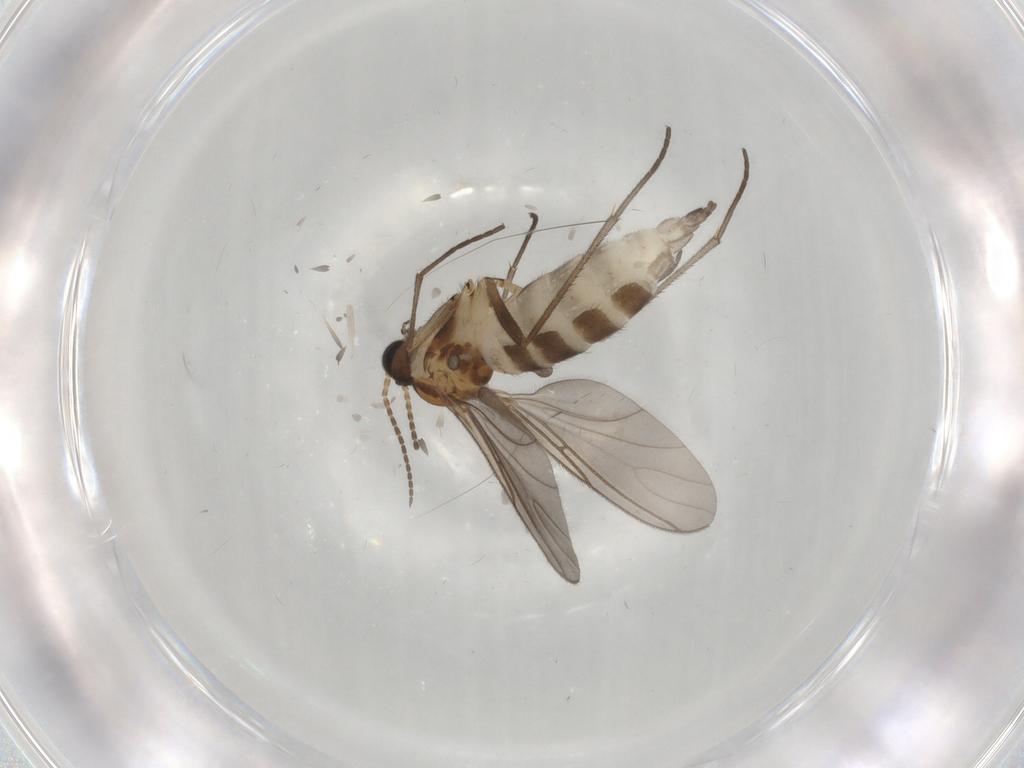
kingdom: Animalia
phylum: Arthropoda
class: Insecta
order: Diptera
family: Sciaridae
